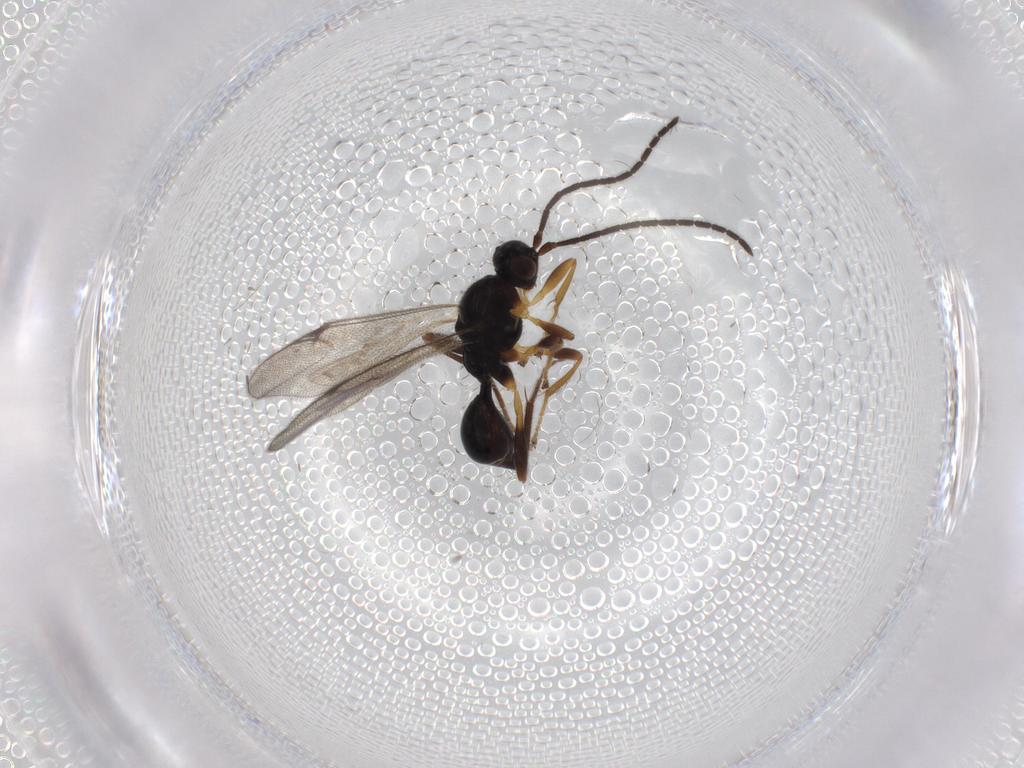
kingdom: Animalia
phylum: Arthropoda
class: Insecta
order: Hymenoptera
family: Proctotrupidae
